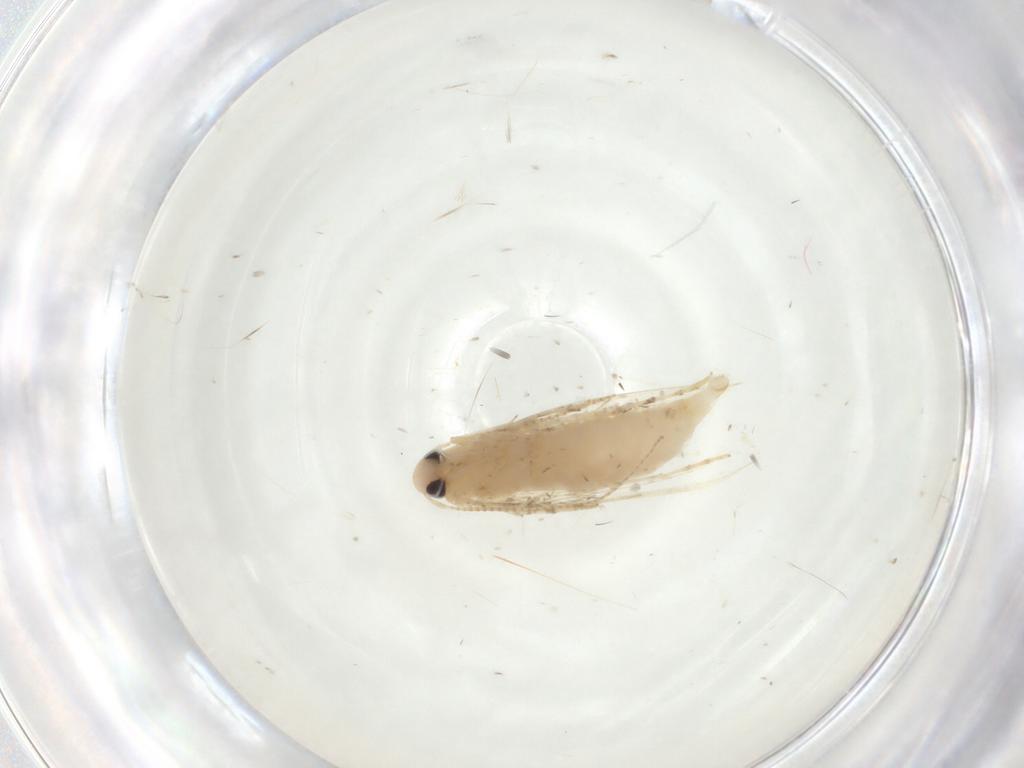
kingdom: Animalia
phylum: Arthropoda
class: Insecta
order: Lepidoptera
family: Gracillariidae
